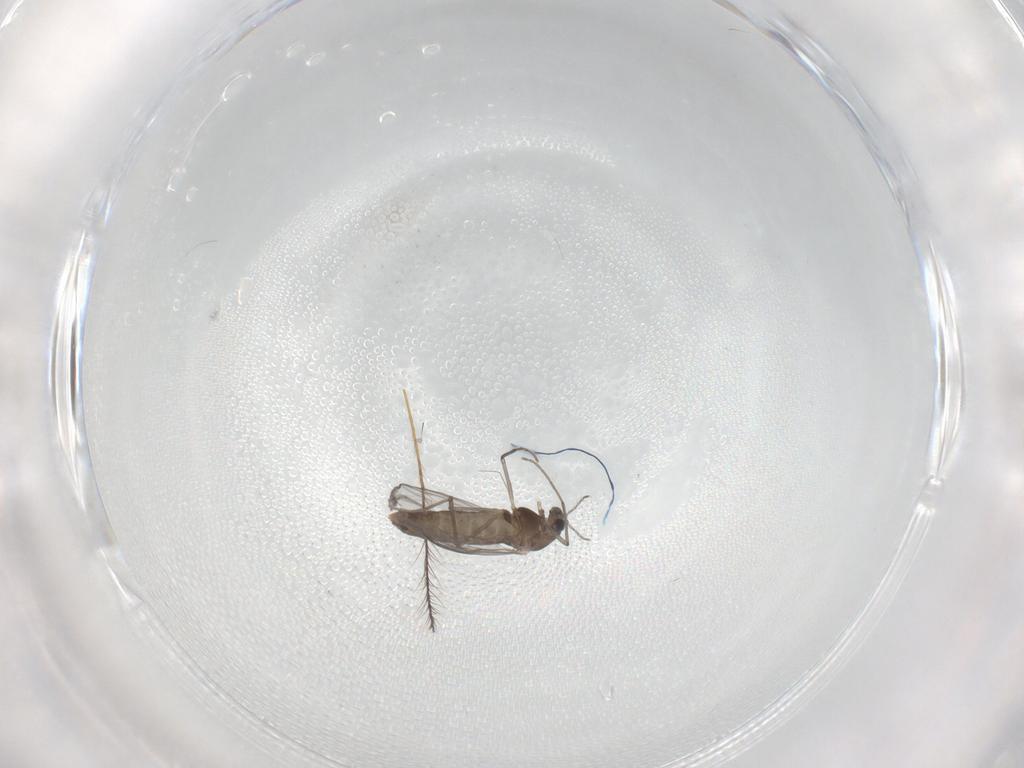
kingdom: Animalia
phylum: Arthropoda
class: Insecta
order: Diptera
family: Chironomidae
